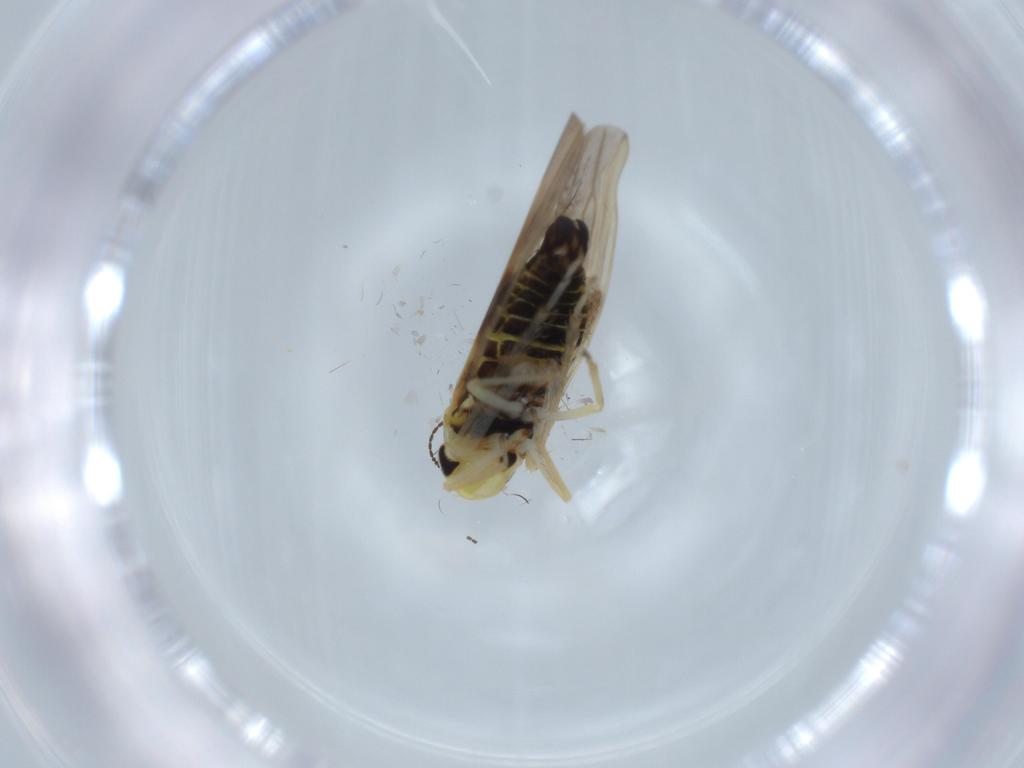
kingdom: Animalia
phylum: Arthropoda
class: Insecta
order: Hemiptera
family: Cicadellidae
